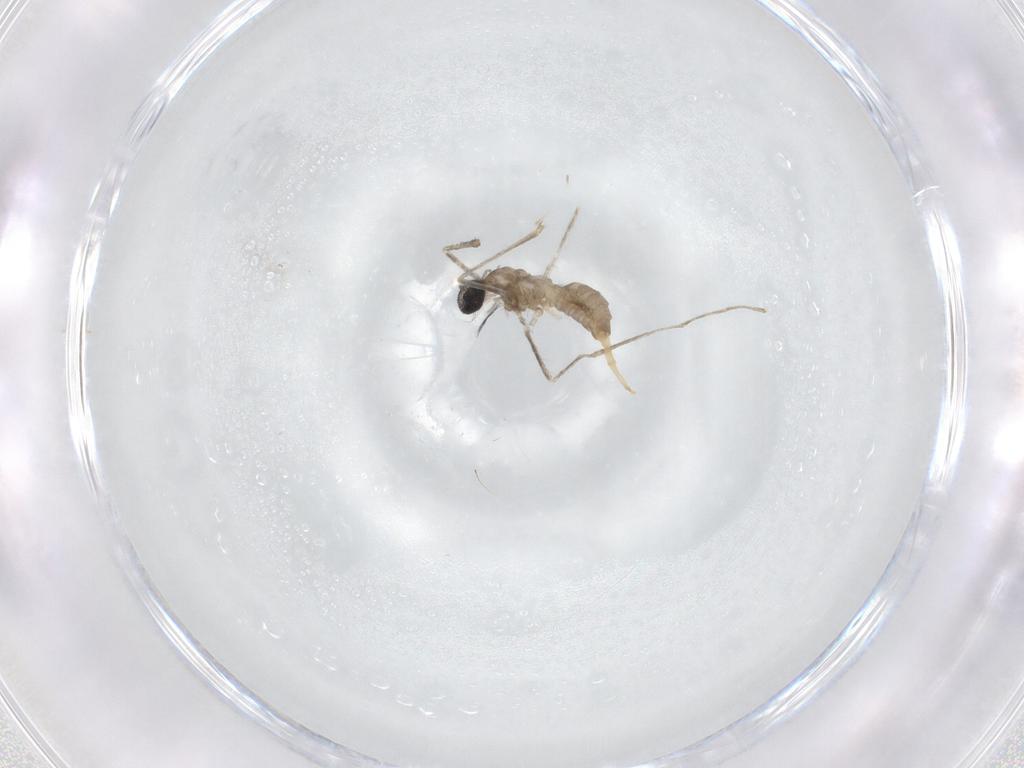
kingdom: Animalia
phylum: Arthropoda
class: Insecta
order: Diptera
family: Cecidomyiidae
